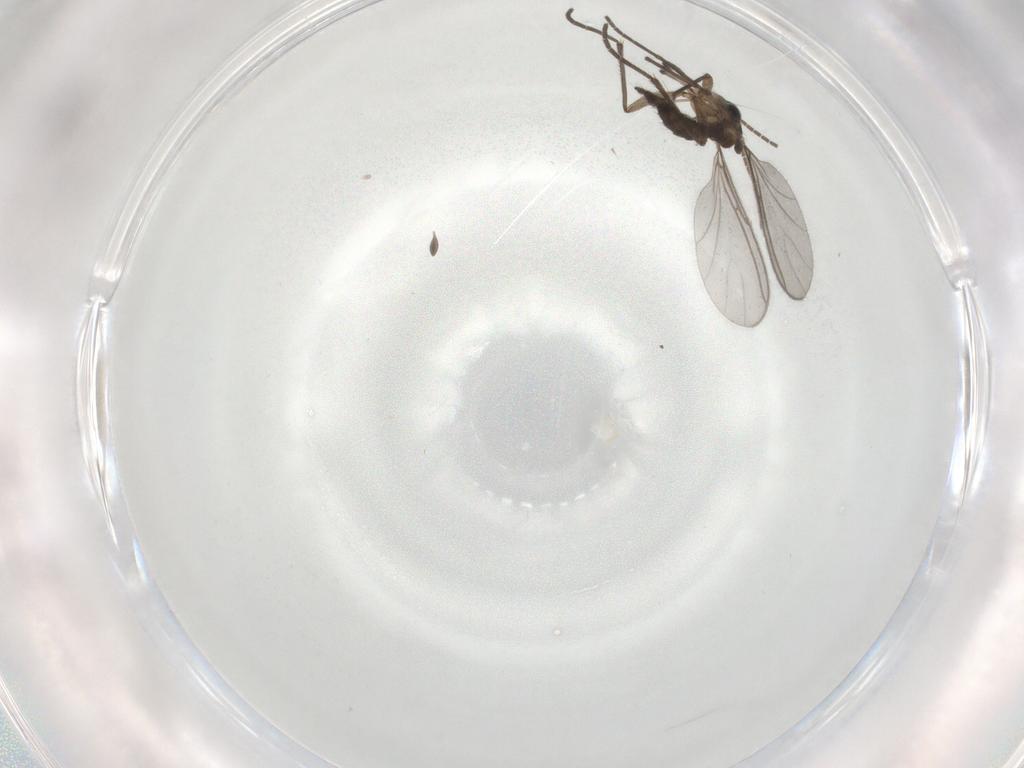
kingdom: Animalia
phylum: Arthropoda
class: Insecta
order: Diptera
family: Sciaridae
